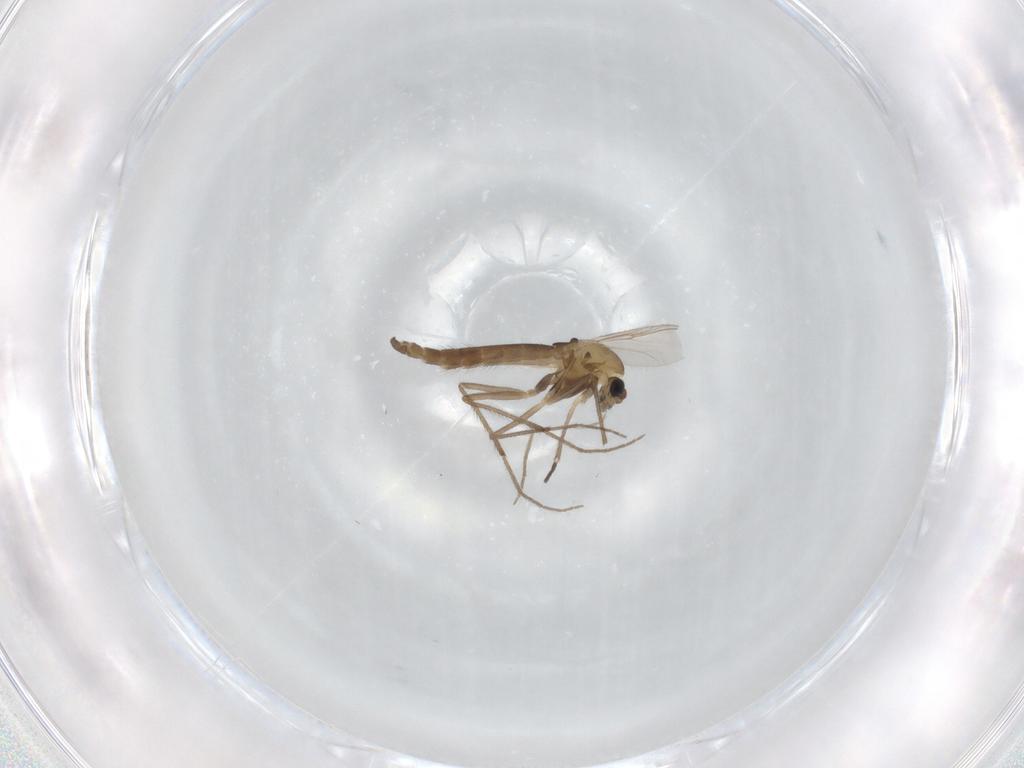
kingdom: Animalia
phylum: Arthropoda
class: Insecta
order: Diptera
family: Chironomidae
